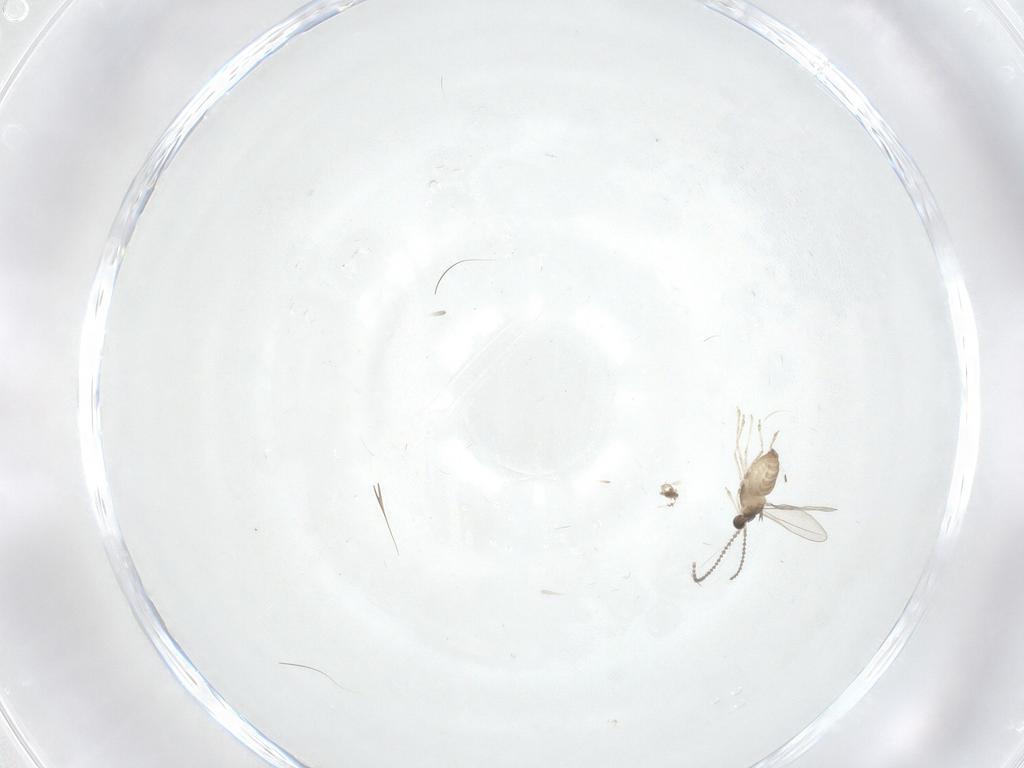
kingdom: Animalia
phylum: Arthropoda
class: Insecta
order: Diptera
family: Cecidomyiidae
